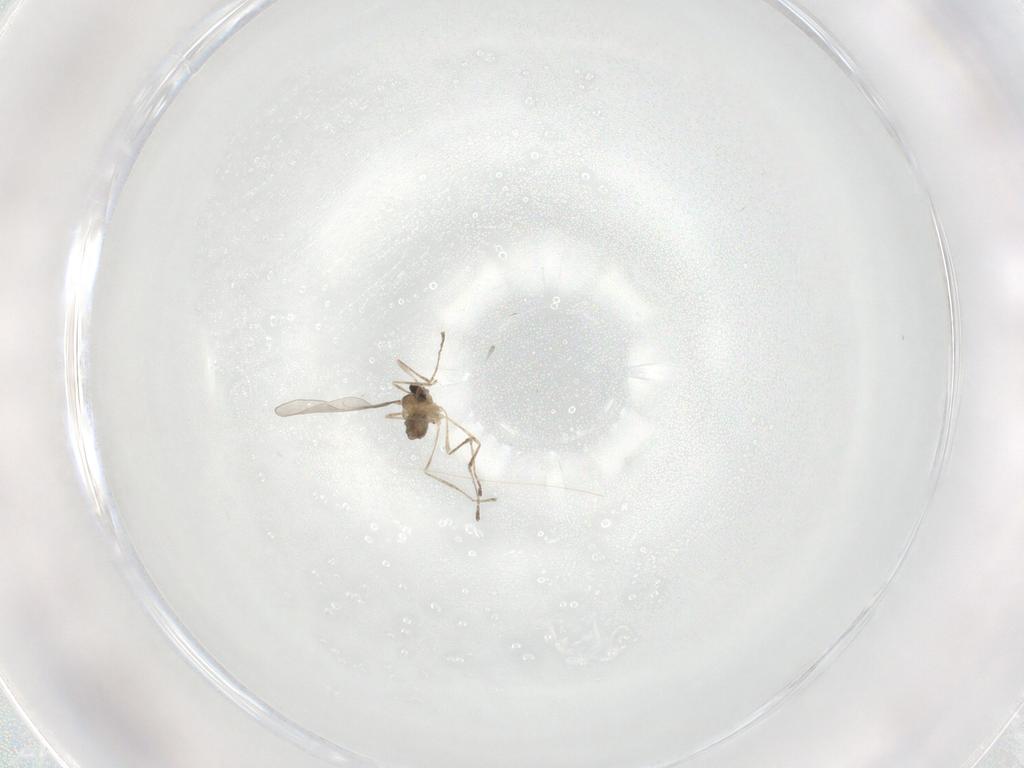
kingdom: Animalia
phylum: Arthropoda
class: Insecta
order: Diptera
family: Cecidomyiidae
